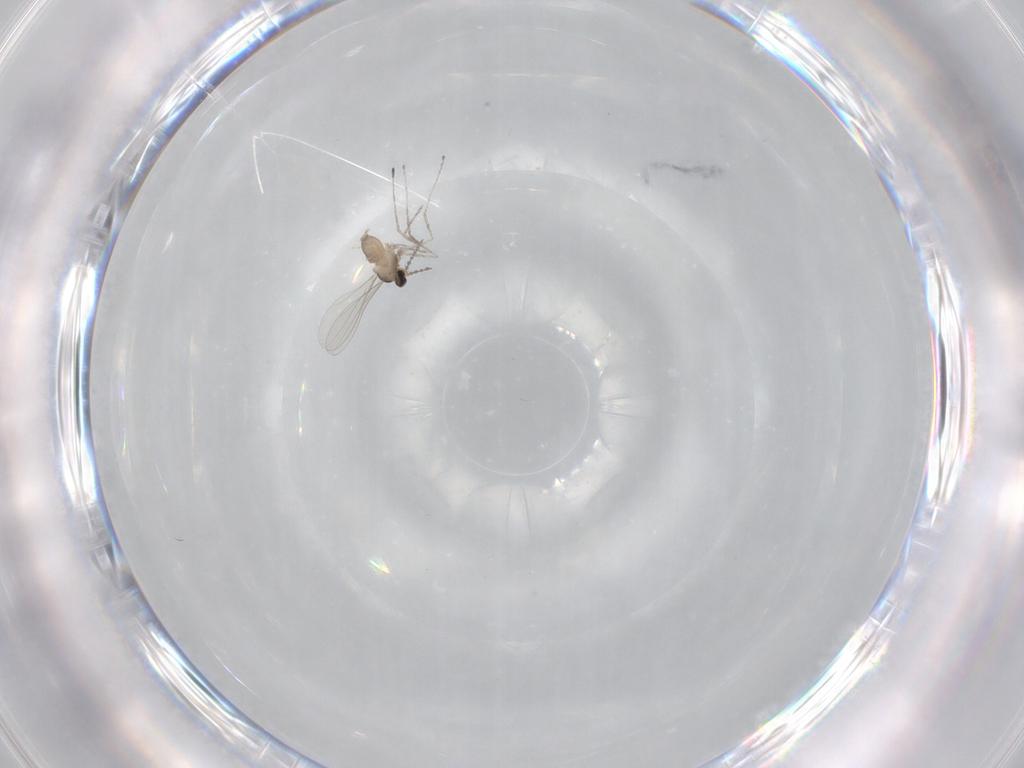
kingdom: Animalia
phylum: Arthropoda
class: Insecta
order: Diptera
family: Cecidomyiidae
